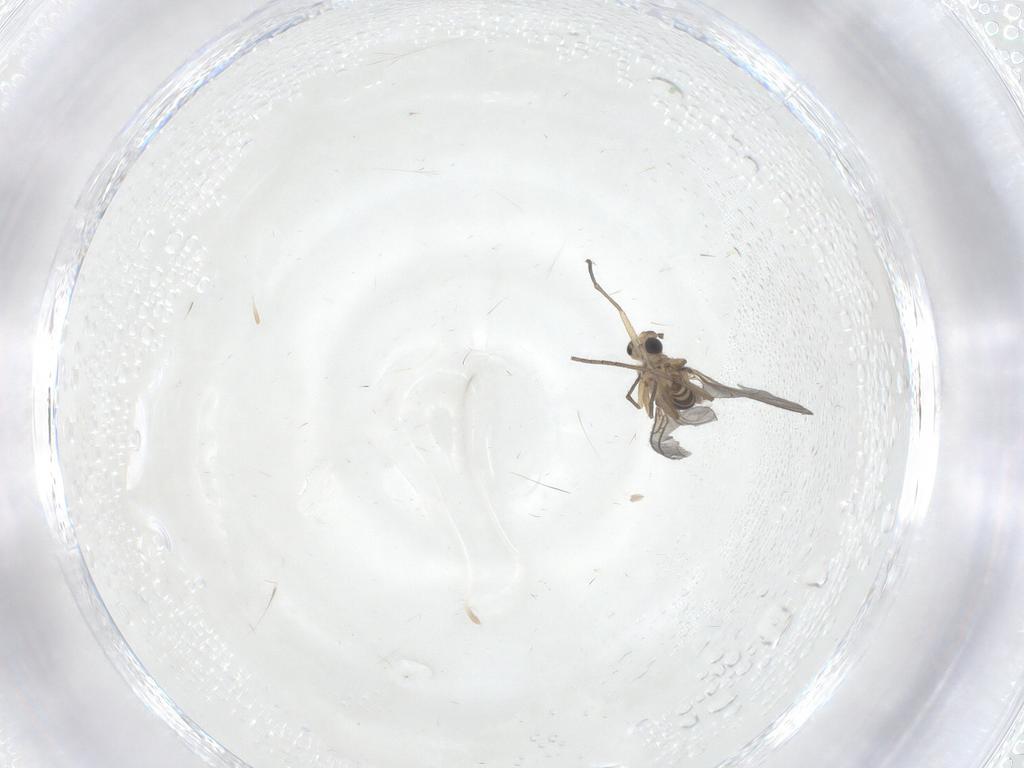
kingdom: Animalia
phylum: Arthropoda
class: Insecta
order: Diptera
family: Sciaridae
